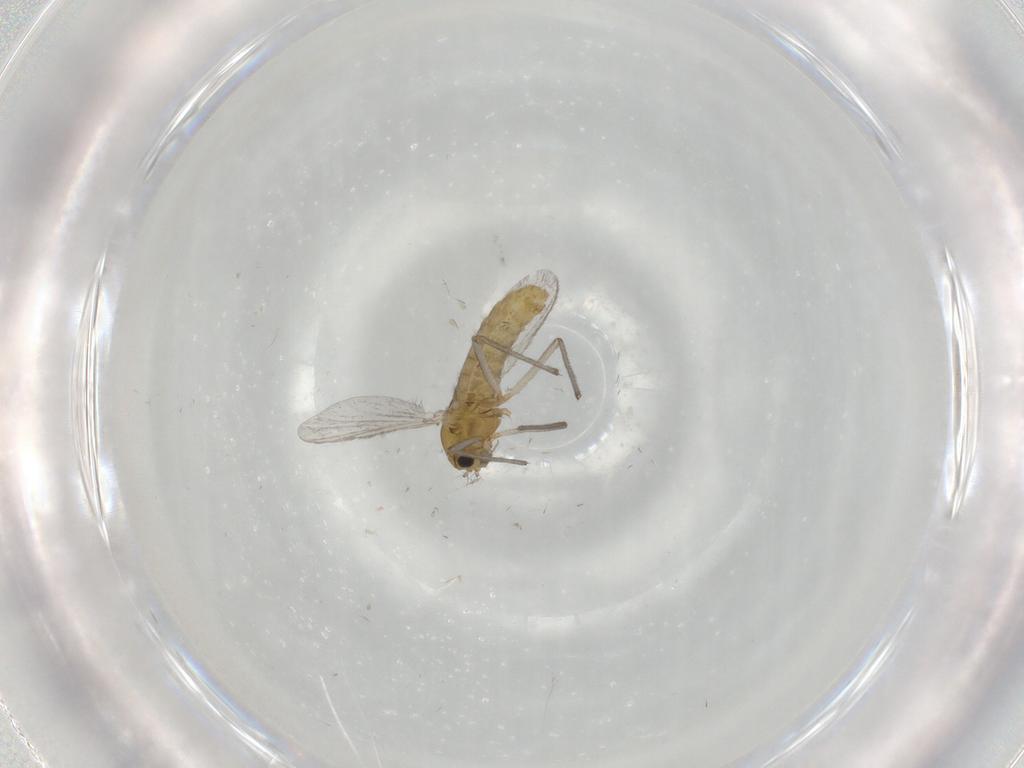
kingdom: Animalia
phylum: Arthropoda
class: Insecta
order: Diptera
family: Chironomidae
